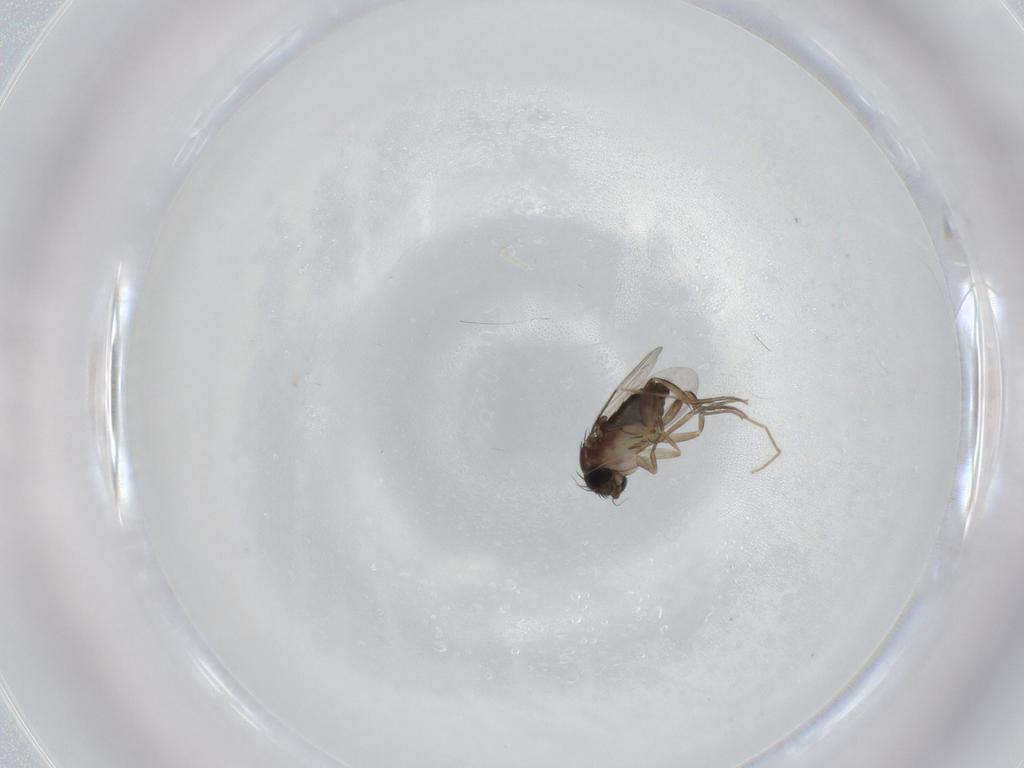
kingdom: Animalia
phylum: Arthropoda
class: Insecta
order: Diptera
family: Phoridae
